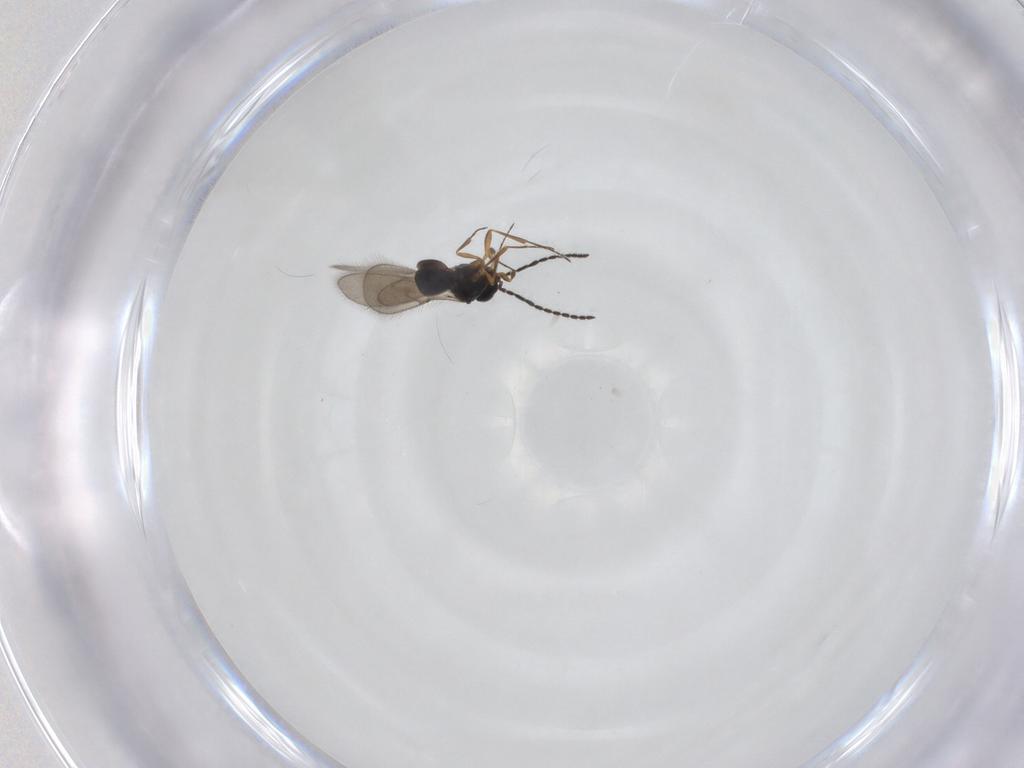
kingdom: Animalia
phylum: Arthropoda
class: Insecta
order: Hymenoptera
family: Scelionidae
